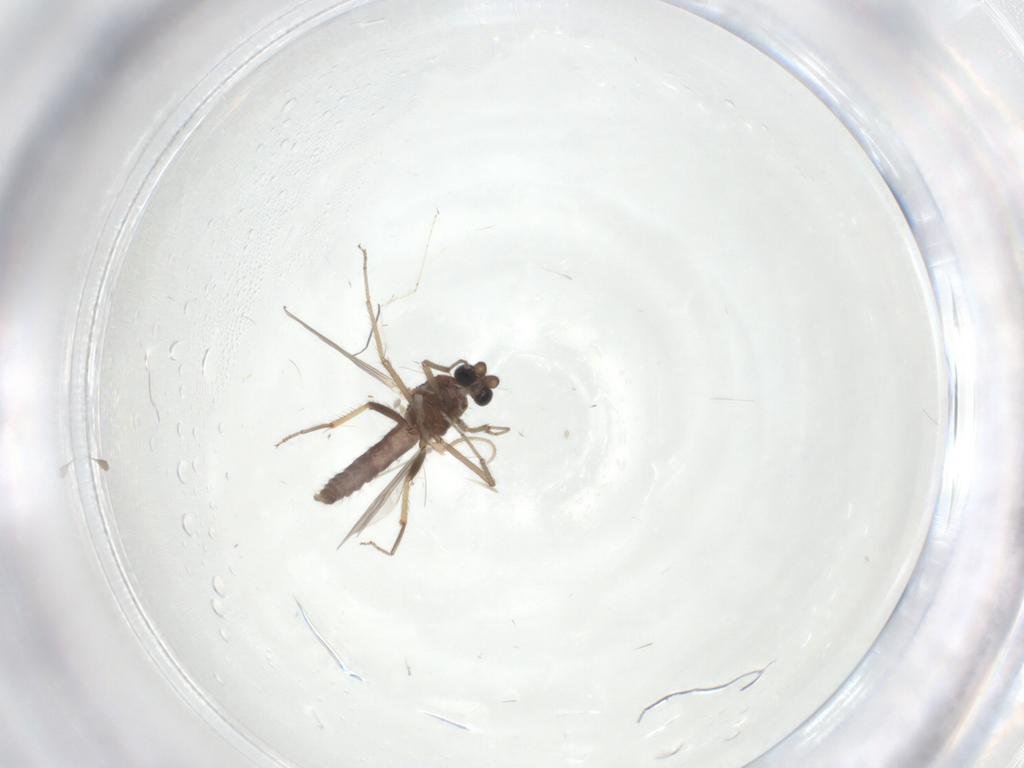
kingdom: Animalia
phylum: Arthropoda
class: Insecta
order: Diptera
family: Ceratopogonidae
